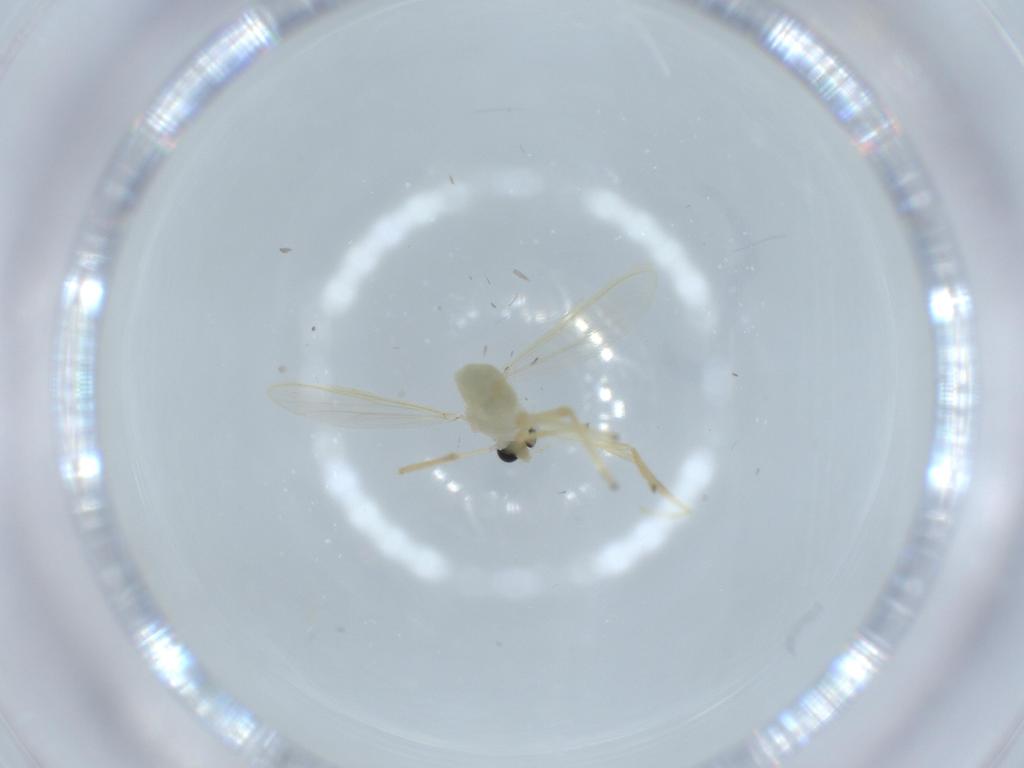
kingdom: Animalia
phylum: Arthropoda
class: Insecta
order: Diptera
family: Chironomidae
